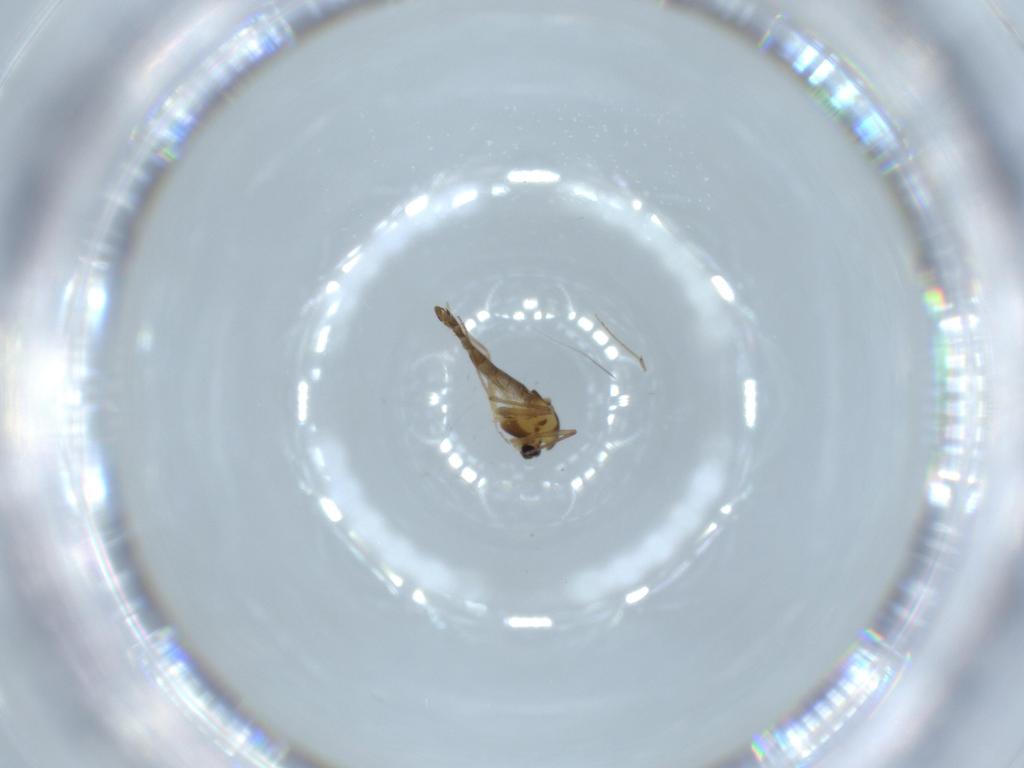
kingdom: Animalia
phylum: Arthropoda
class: Insecta
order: Diptera
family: Chironomidae
